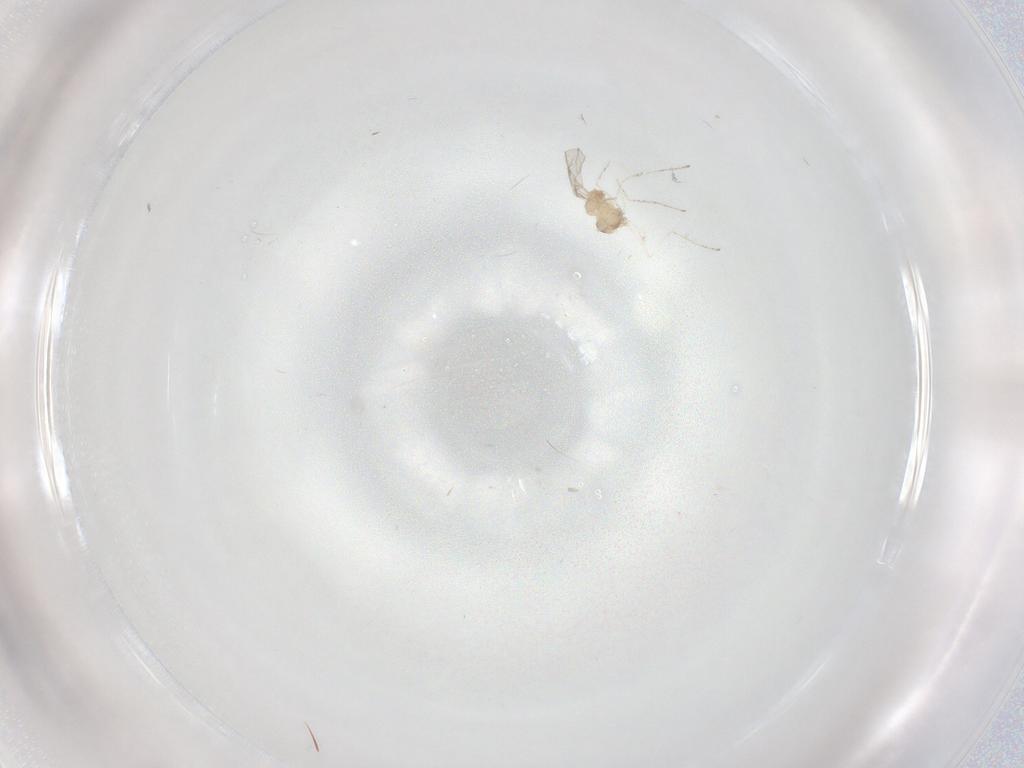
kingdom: Animalia
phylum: Arthropoda
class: Insecta
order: Diptera
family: Cecidomyiidae
